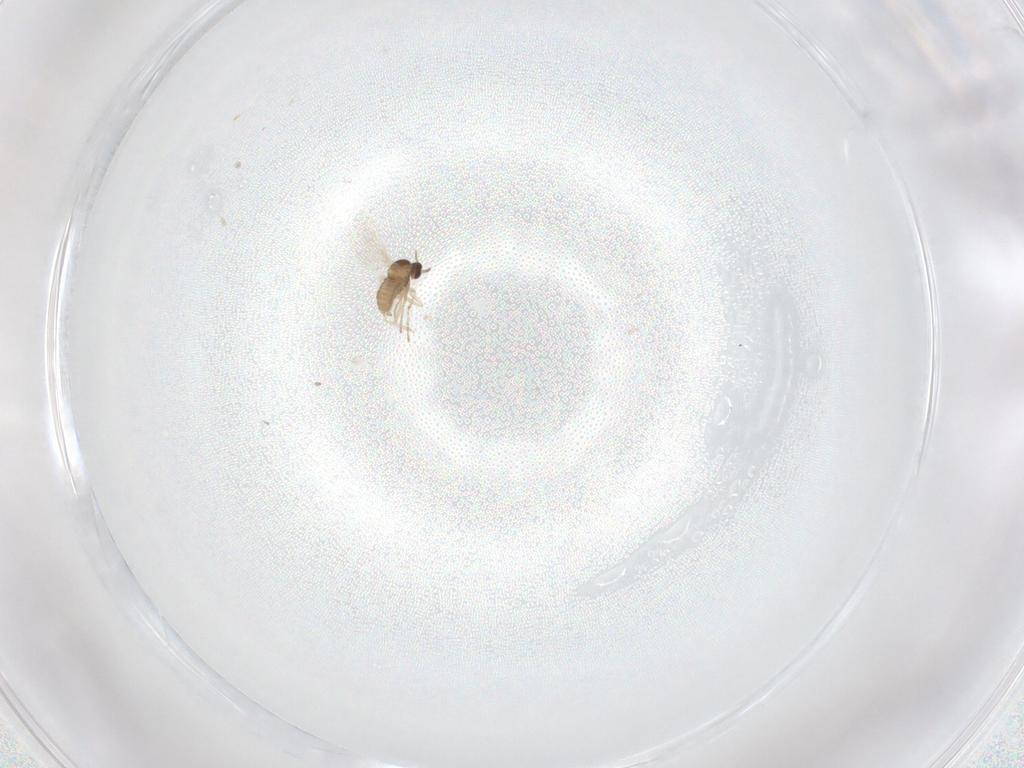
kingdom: Animalia
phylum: Arthropoda
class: Insecta
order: Diptera
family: Cecidomyiidae
